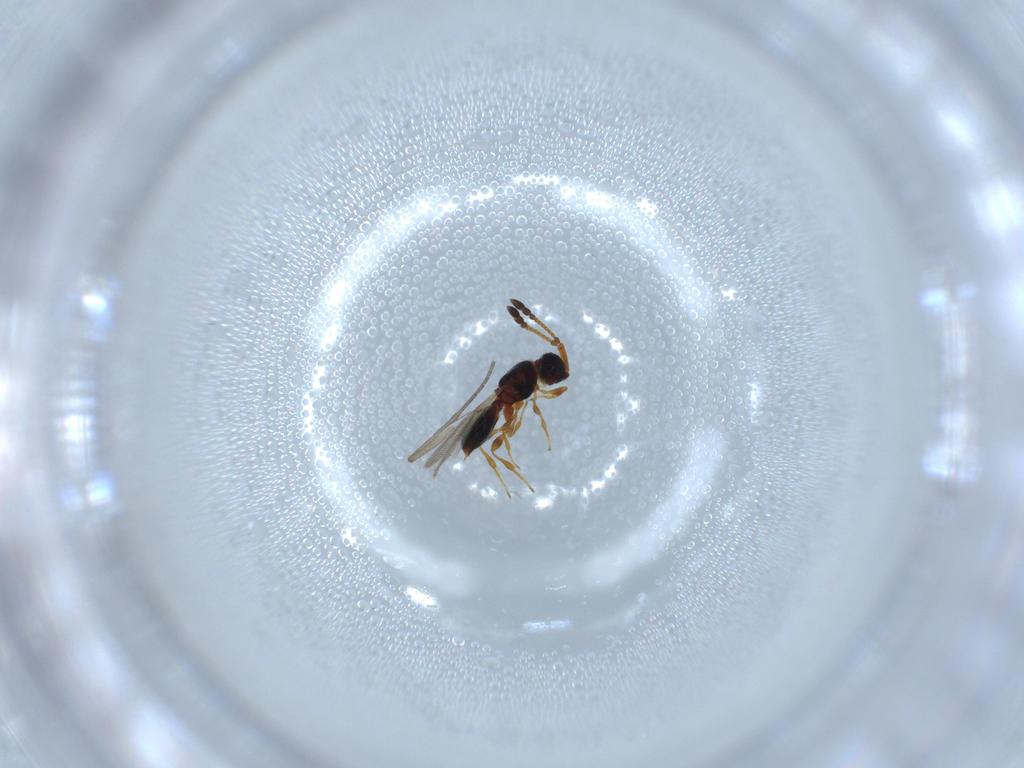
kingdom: Animalia
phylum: Arthropoda
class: Insecta
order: Hymenoptera
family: Diapriidae
